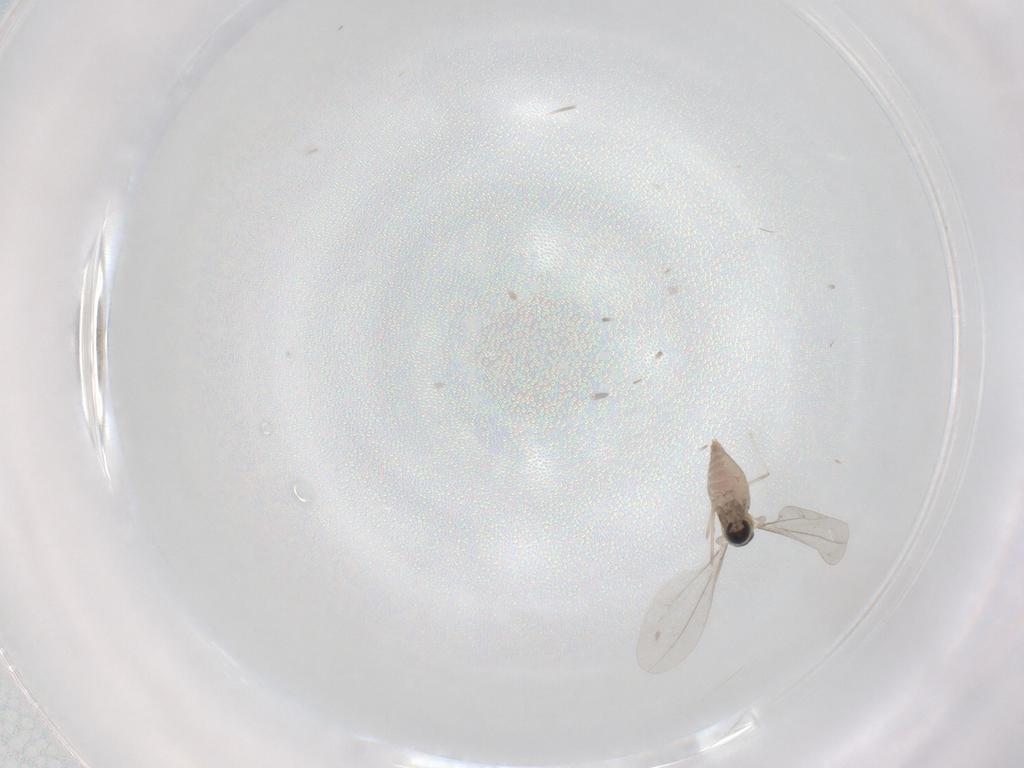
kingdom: Animalia
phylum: Arthropoda
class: Insecta
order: Diptera
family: Cecidomyiidae
